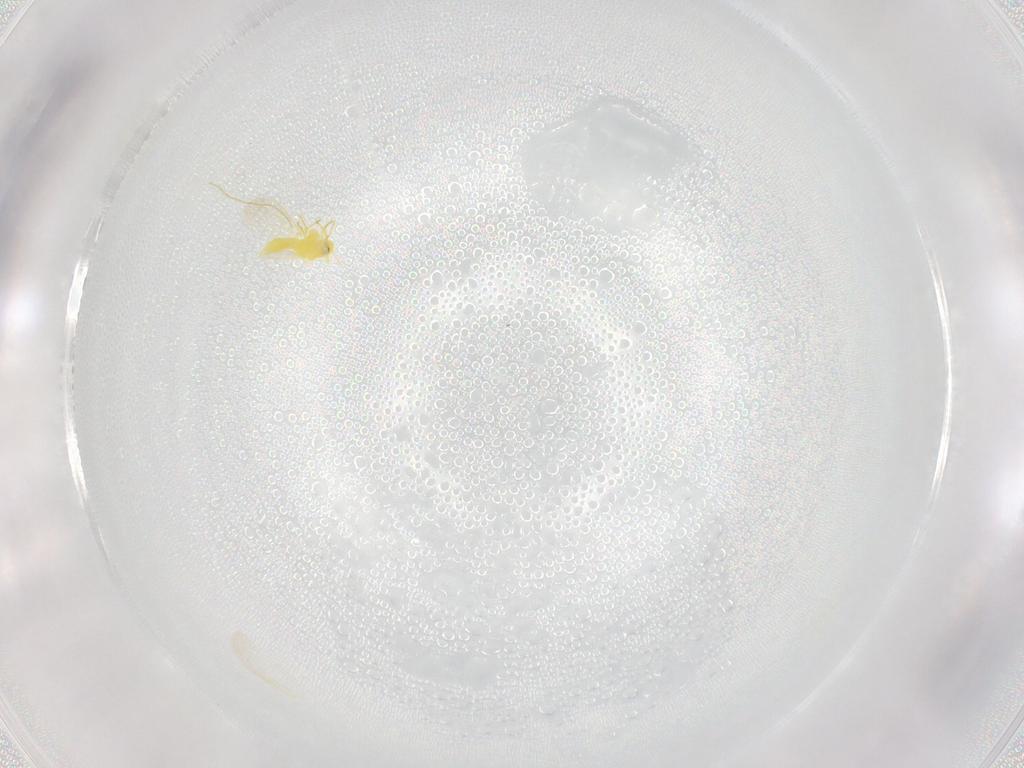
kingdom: Animalia
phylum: Arthropoda
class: Insecta
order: Hemiptera
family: Aleyrodidae
